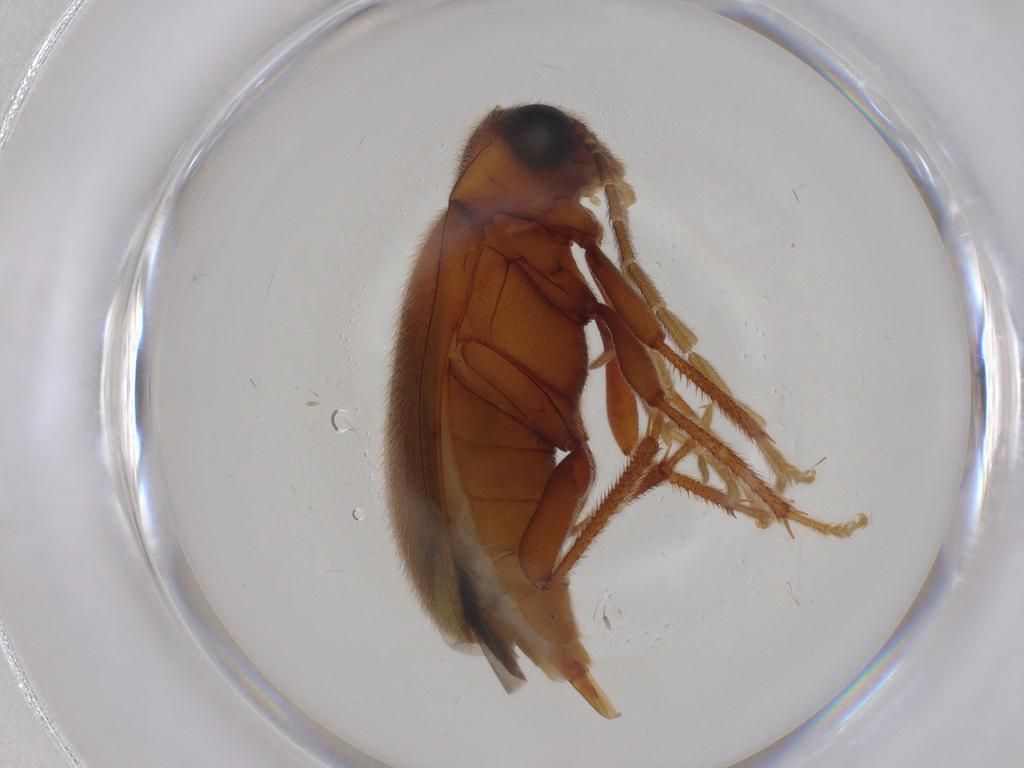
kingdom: Animalia
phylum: Arthropoda
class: Insecta
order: Coleoptera
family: Ptilodactylidae
